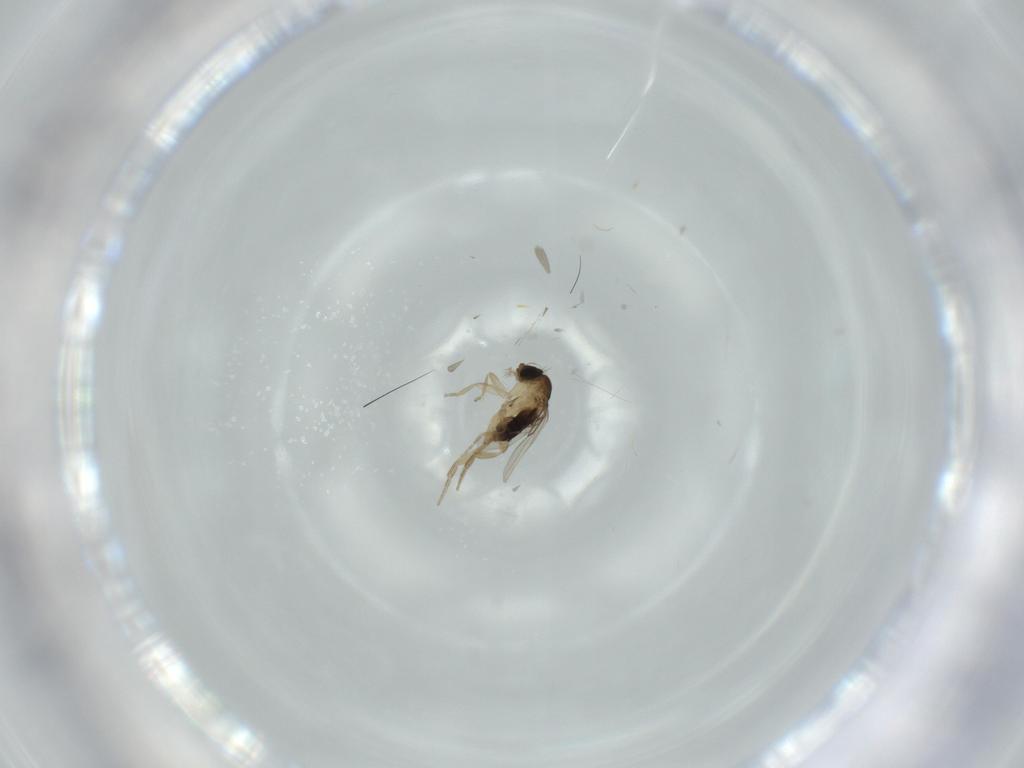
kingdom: Animalia
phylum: Arthropoda
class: Insecta
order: Diptera
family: Phoridae
